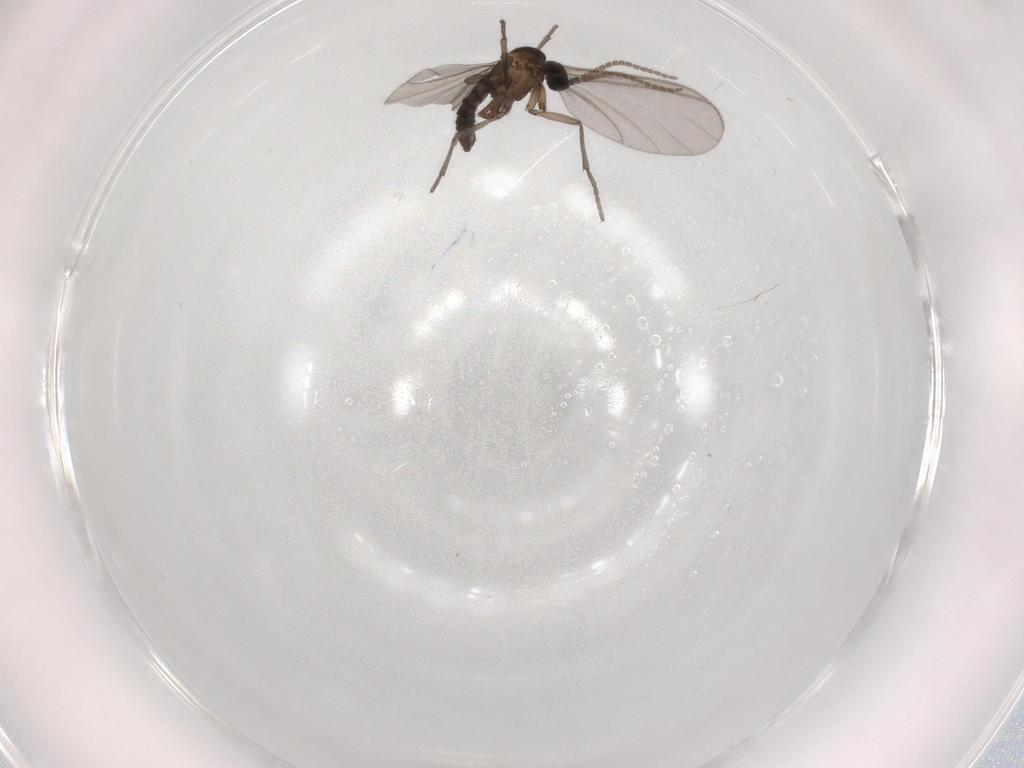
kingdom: Animalia
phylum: Arthropoda
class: Insecta
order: Diptera
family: Sciaridae
